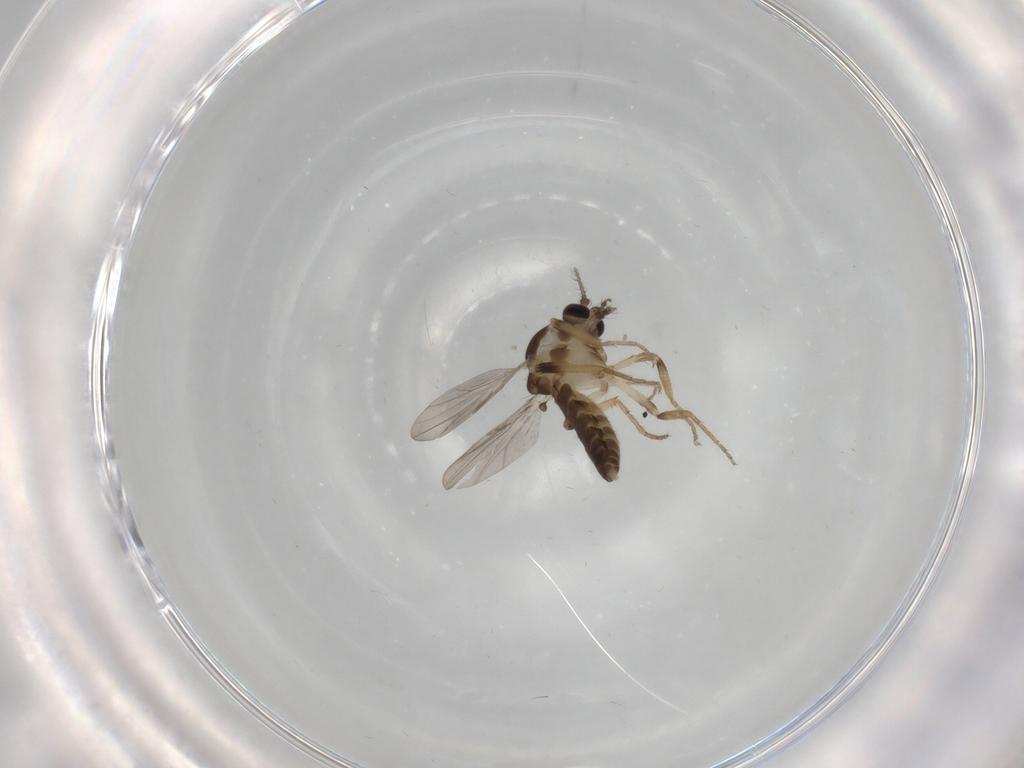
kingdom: Animalia
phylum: Arthropoda
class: Insecta
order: Diptera
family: Ceratopogonidae
